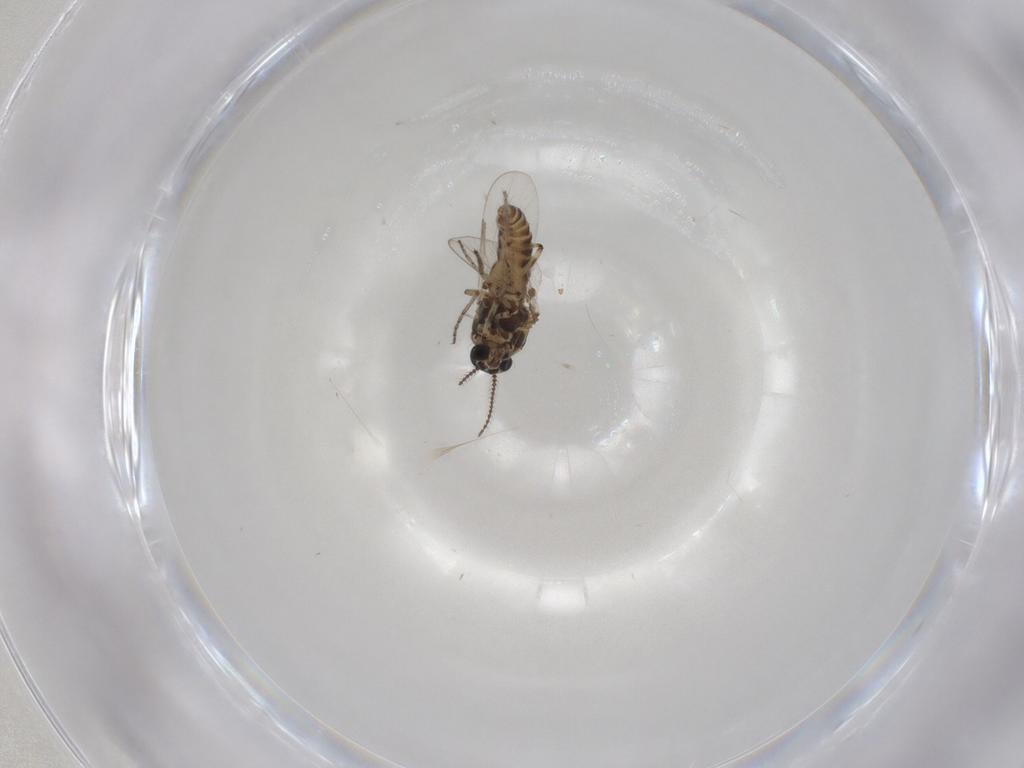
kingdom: Animalia
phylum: Arthropoda
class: Insecta
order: Diptera
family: Ceratopogonidae
